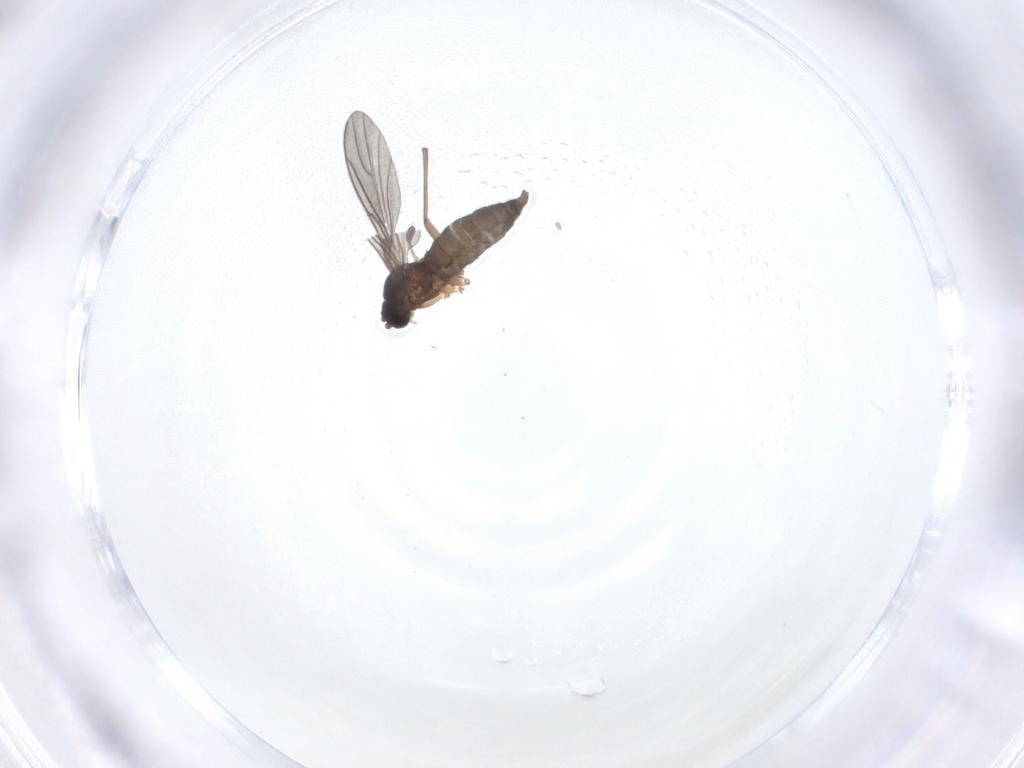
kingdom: Animalia
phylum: Arthropoda
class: Insecta
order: Diptera
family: Sciaridae
